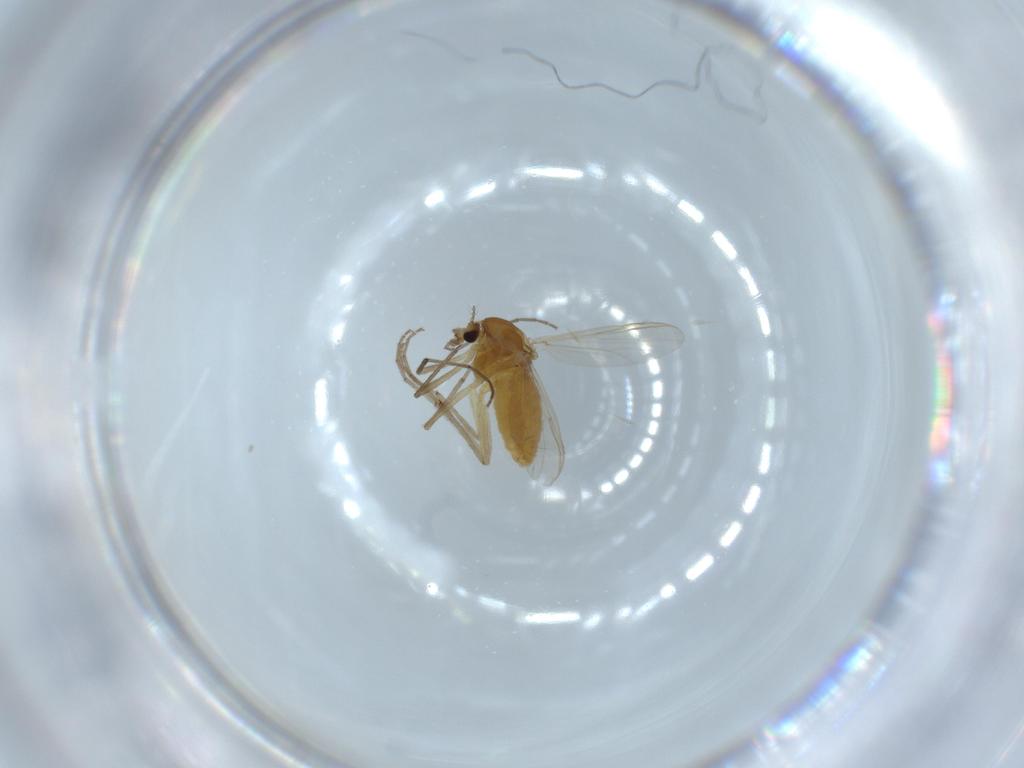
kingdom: Animalia
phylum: Arthropoda
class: Insecta
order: Diptera
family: Chironomidae
